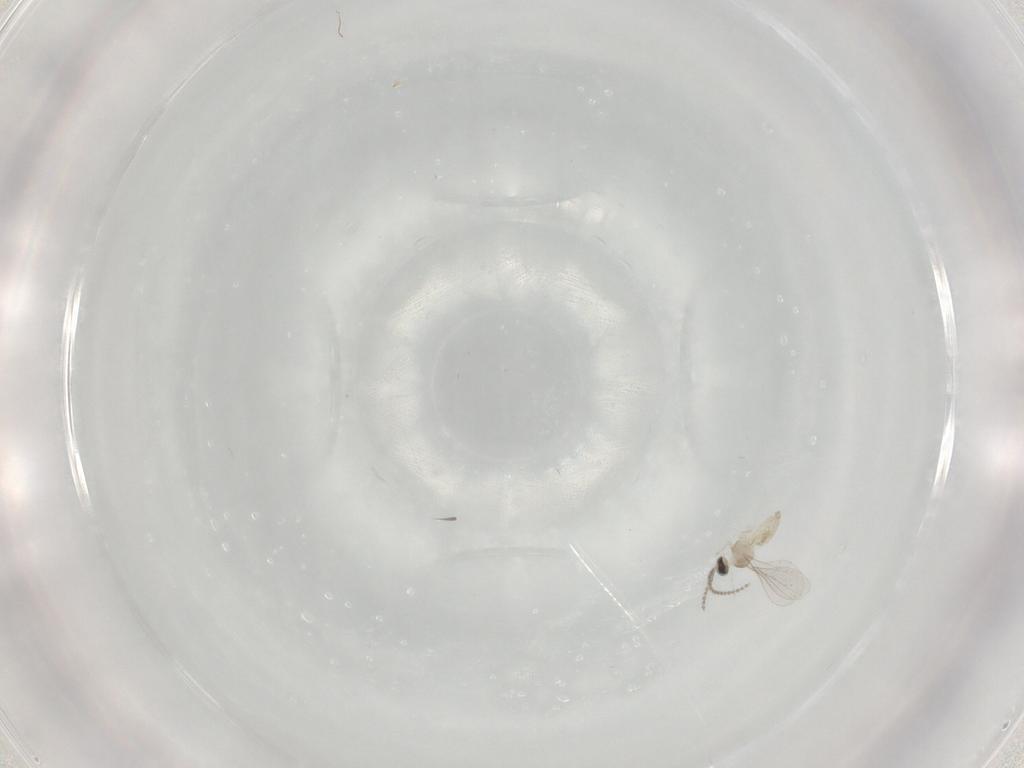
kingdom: Animalia
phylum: Arthropoda
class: Insecta
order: Diptera
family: Cecidomyiidae
